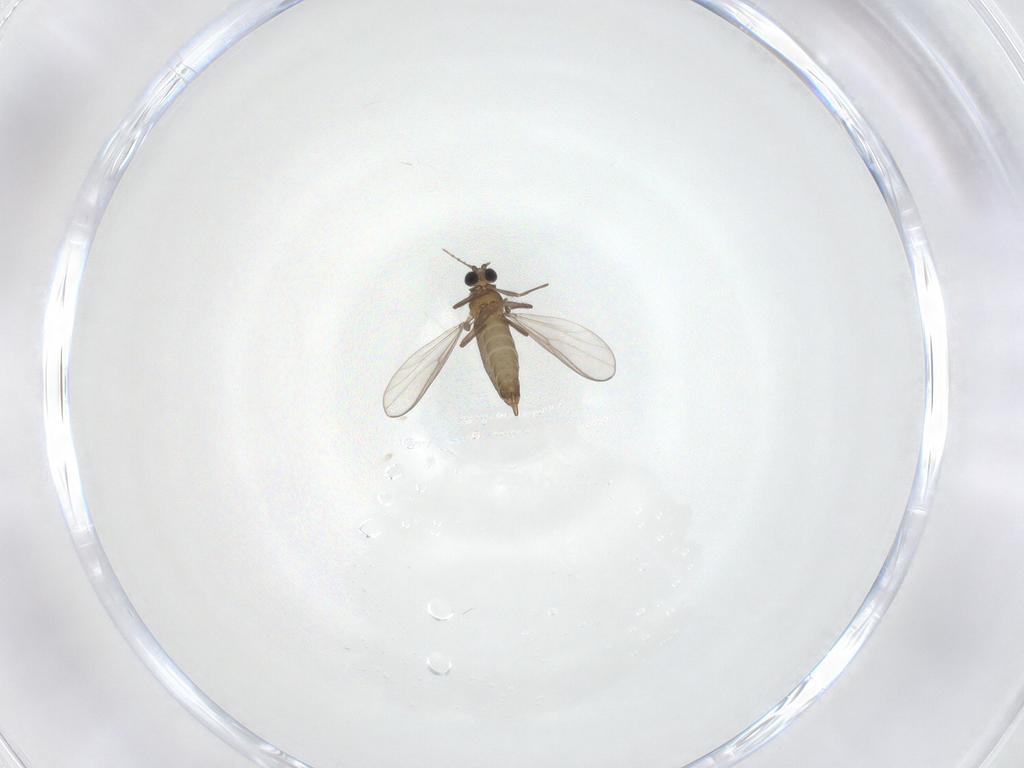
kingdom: Animalia
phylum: Arthropoda
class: Insecta
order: Diptera
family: Chironomidae
